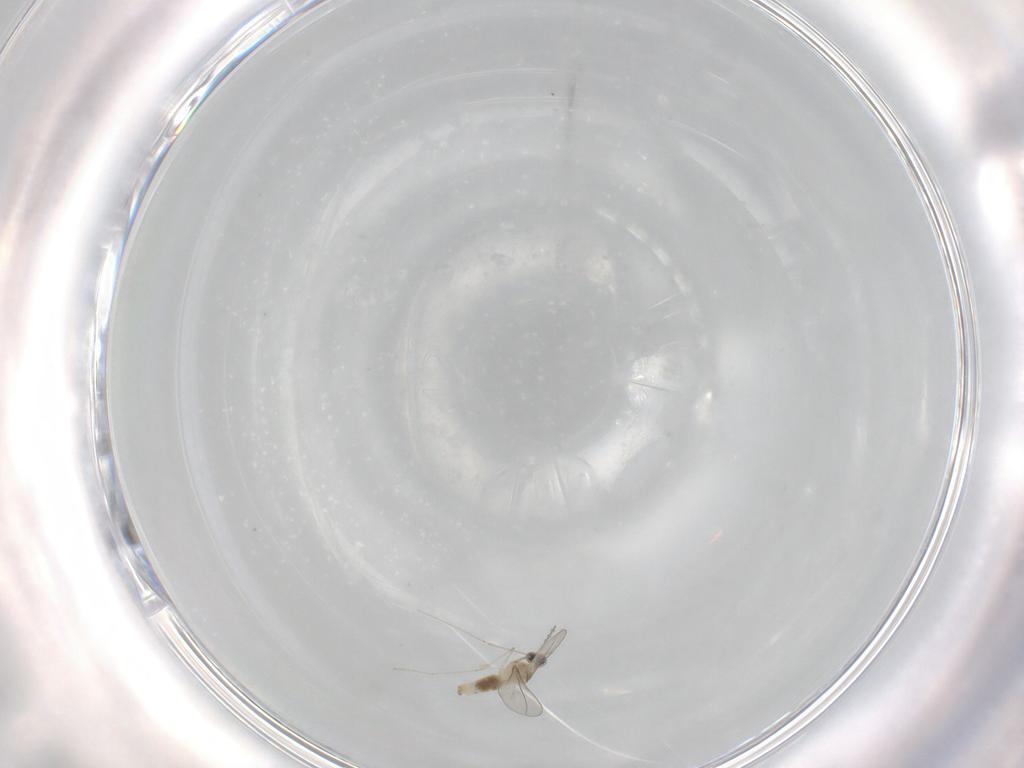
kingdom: Animalia
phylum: Arthropoda
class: Insecta
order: Diptera
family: Cecidomyiidae
